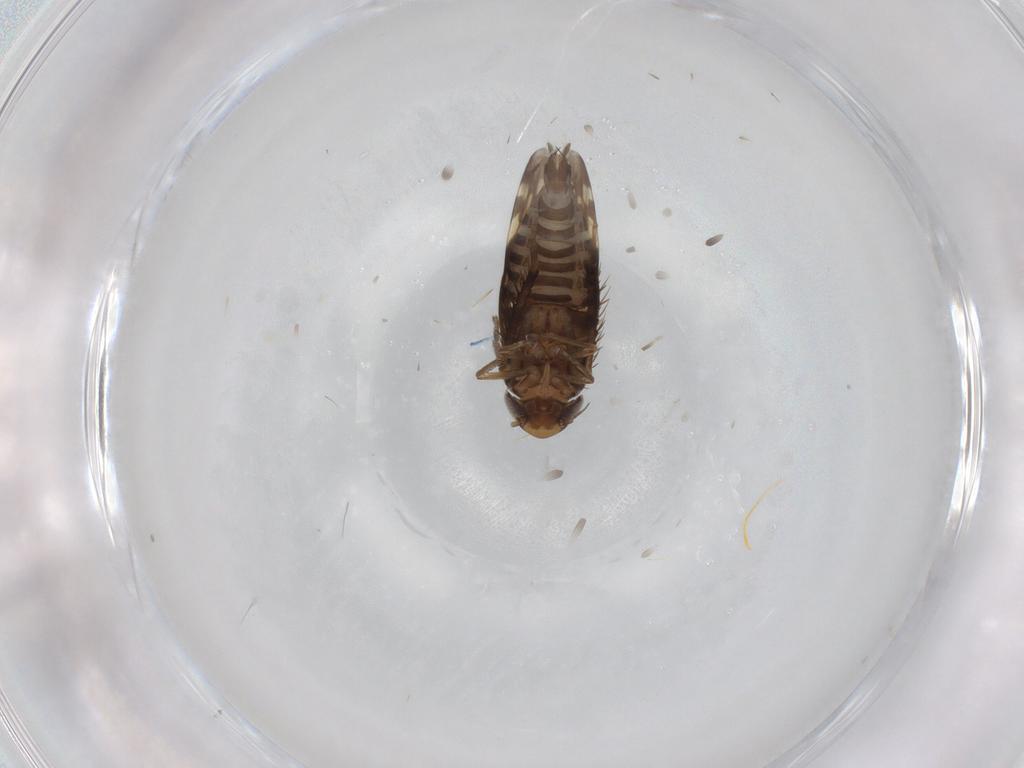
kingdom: Animalia
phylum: Arthropoda
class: Insecta
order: Hemiptera
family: Cicadellidae
